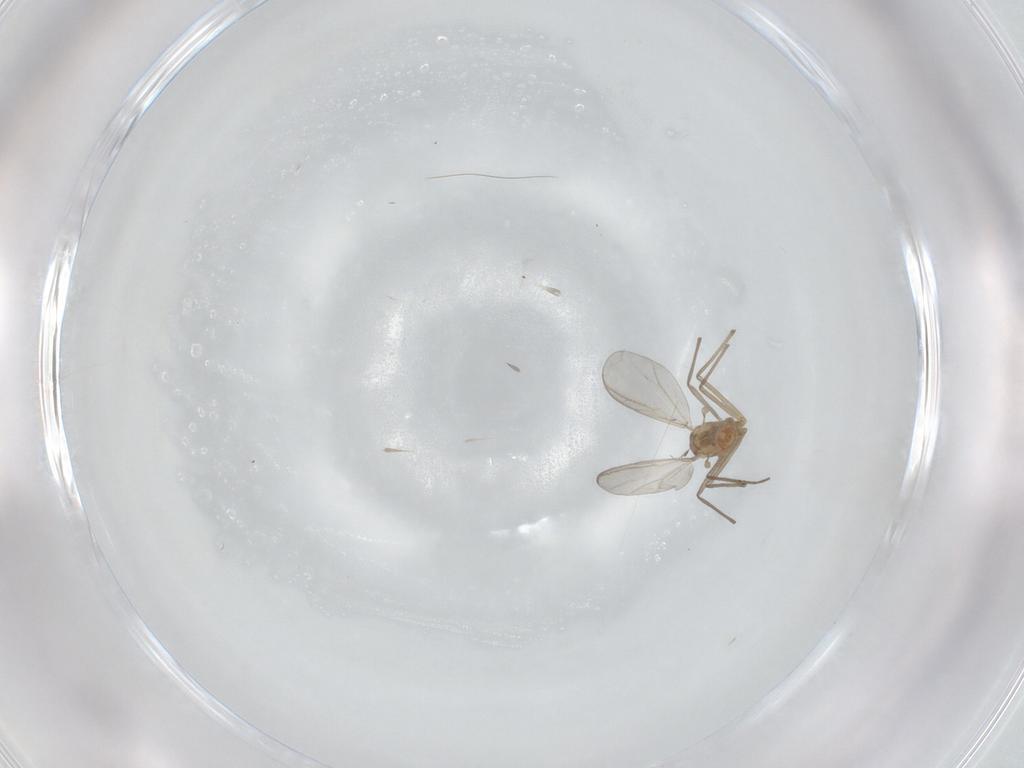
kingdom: Animalia
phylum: Arthropoda
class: Insecta
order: Diptera
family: Chironomidae
